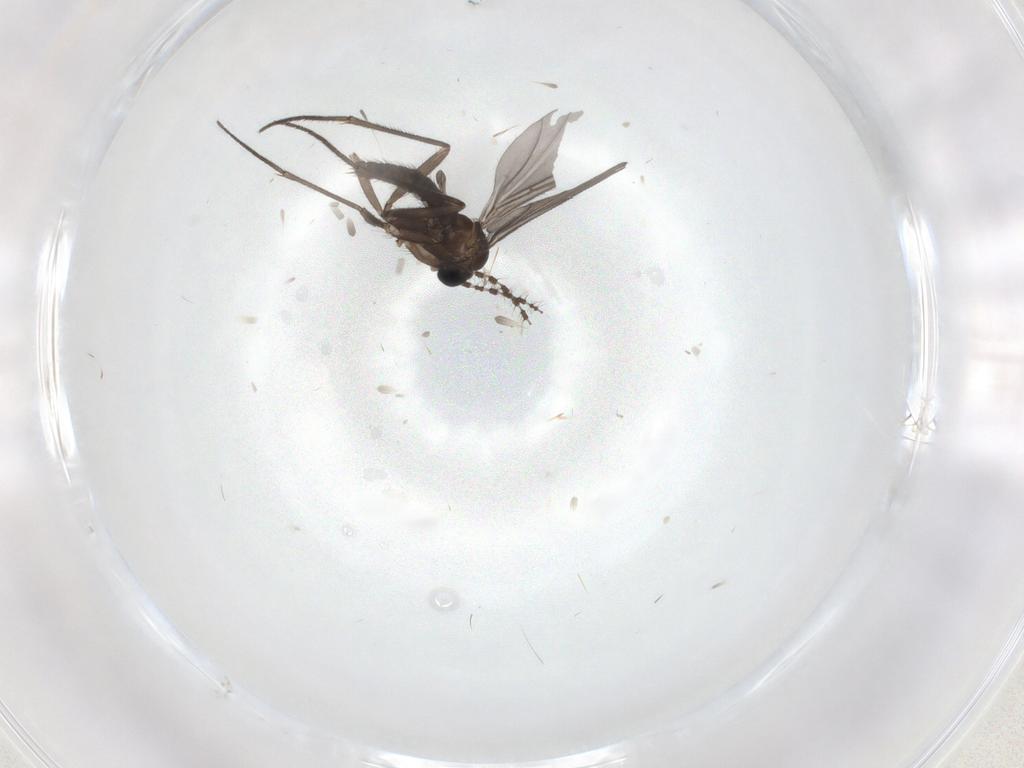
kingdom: Animalia
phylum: Arthropoda
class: Insecta
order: Diptera
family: Sciaridae
